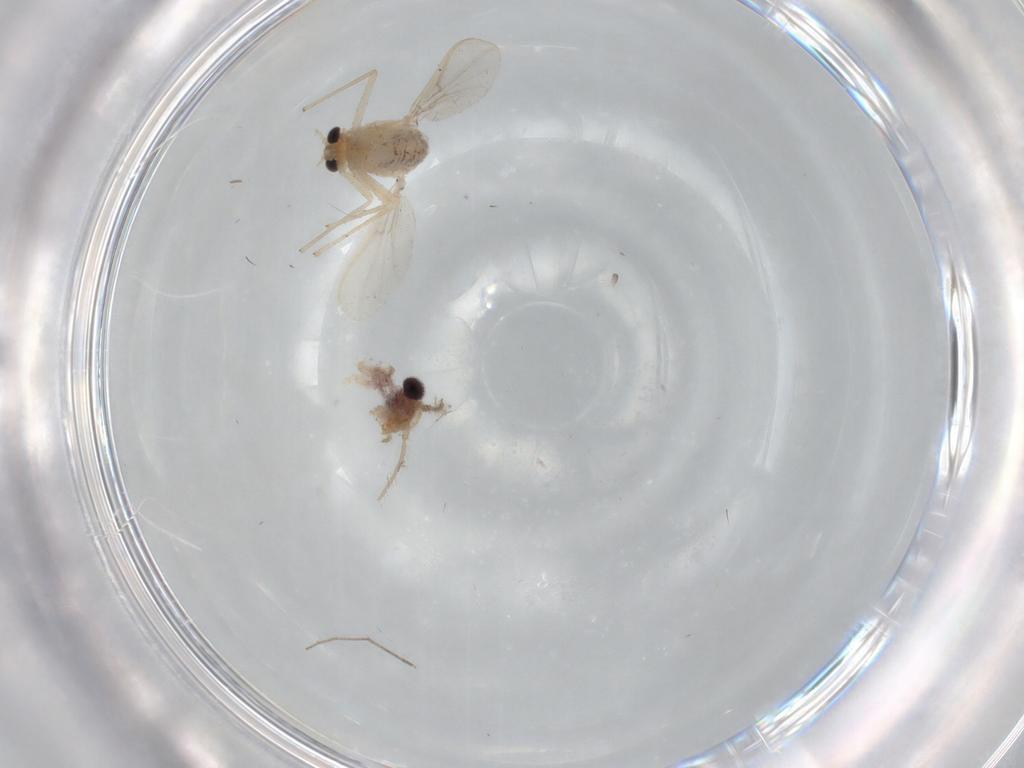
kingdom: Animalia
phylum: Arthropoda
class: Insecta
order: Diptera
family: Chironomidae
